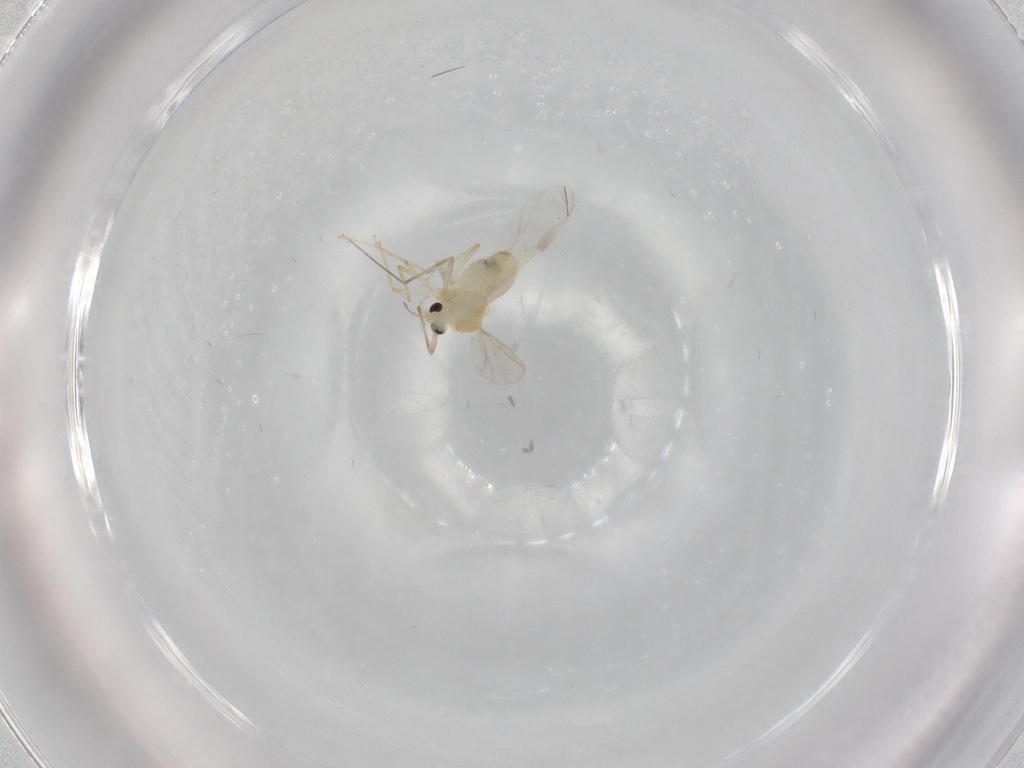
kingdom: Animalia
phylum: Arthropoda
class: Insecta
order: Diptera
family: Chironomidae
